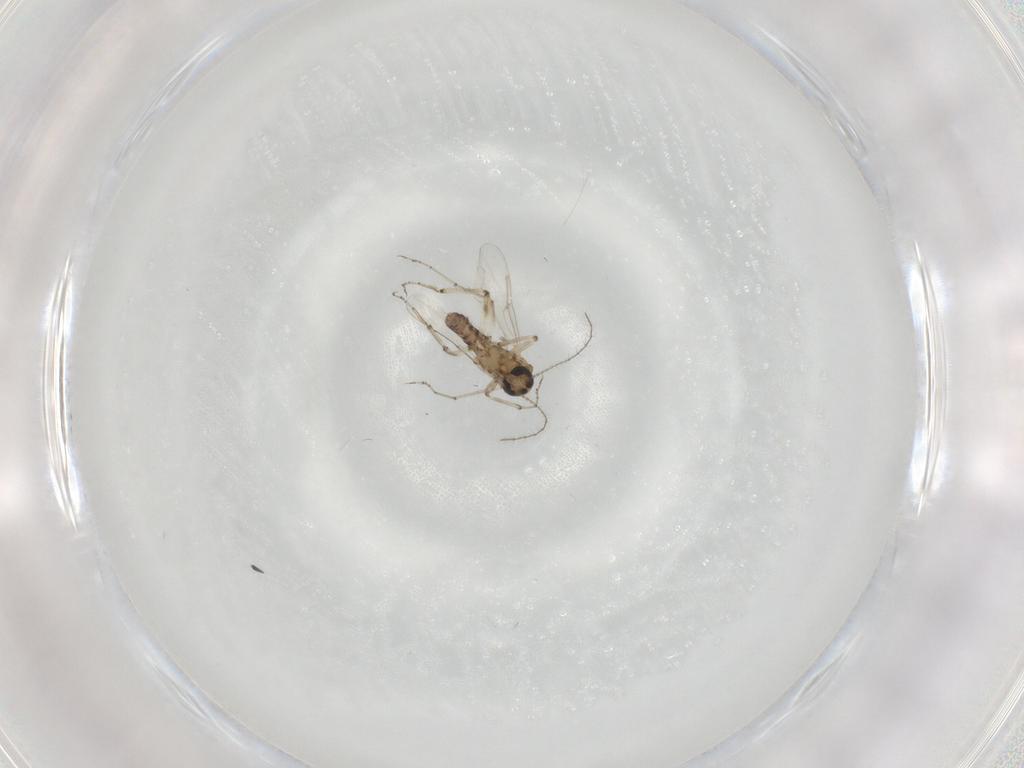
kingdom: Animalia
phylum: Arthropoda
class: Insecta
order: Diptera
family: Ceratopogonidae
